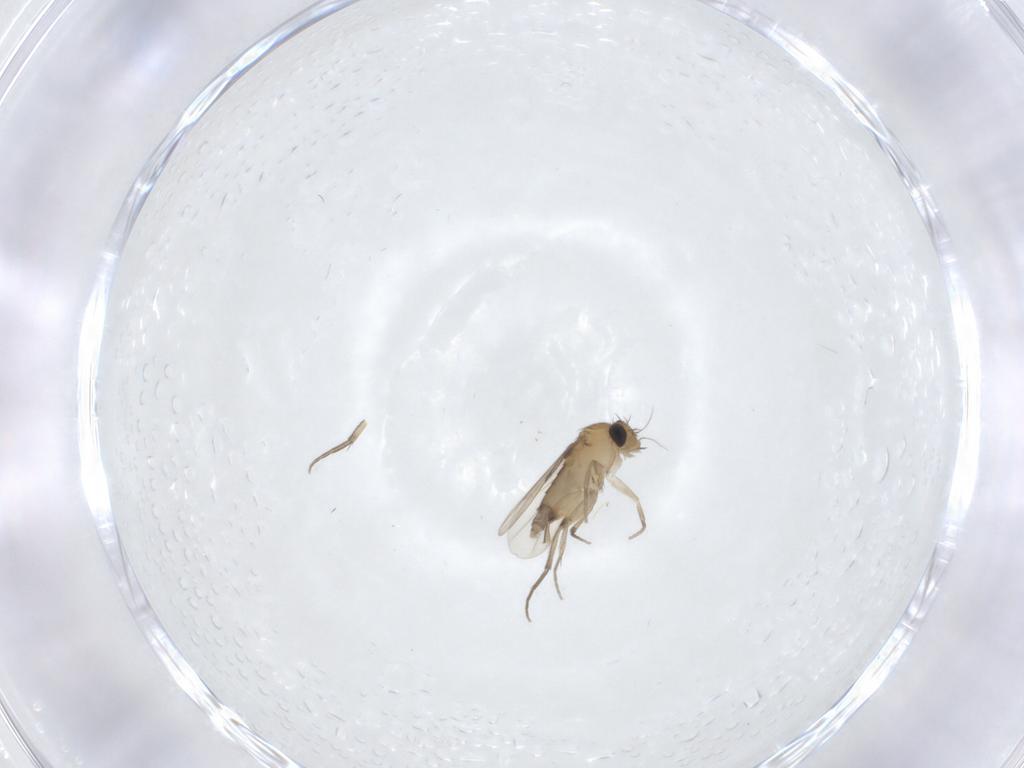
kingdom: Animalia
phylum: Arthropoda
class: Insecta
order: Diptera
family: Phoridae
